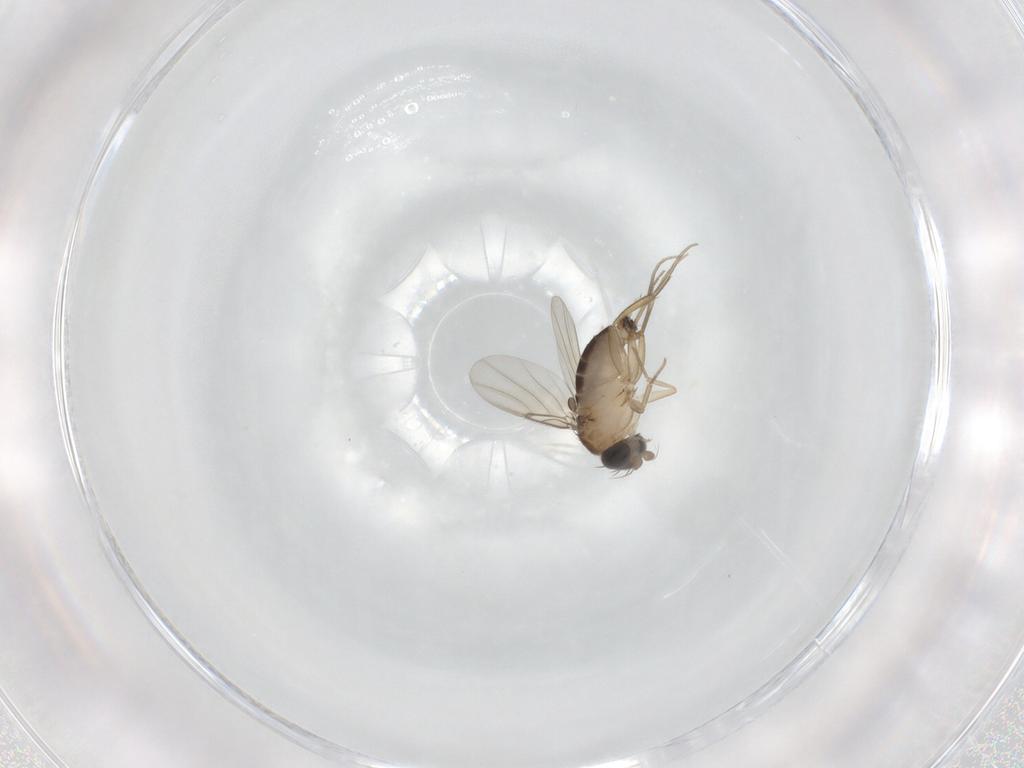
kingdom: Animalia
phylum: Arthropoda
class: Insecta
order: Diptera
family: Phoridae
